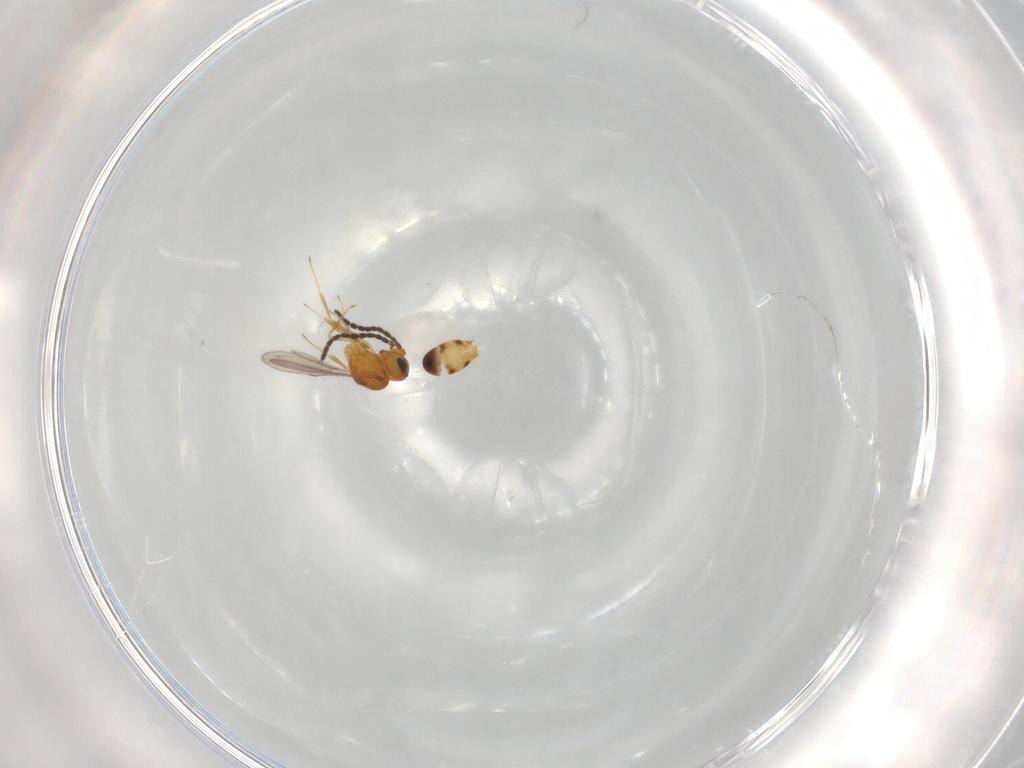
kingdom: Animalia
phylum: Arthropoda
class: Insecta
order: Hymenoptera
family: Scelionidae
